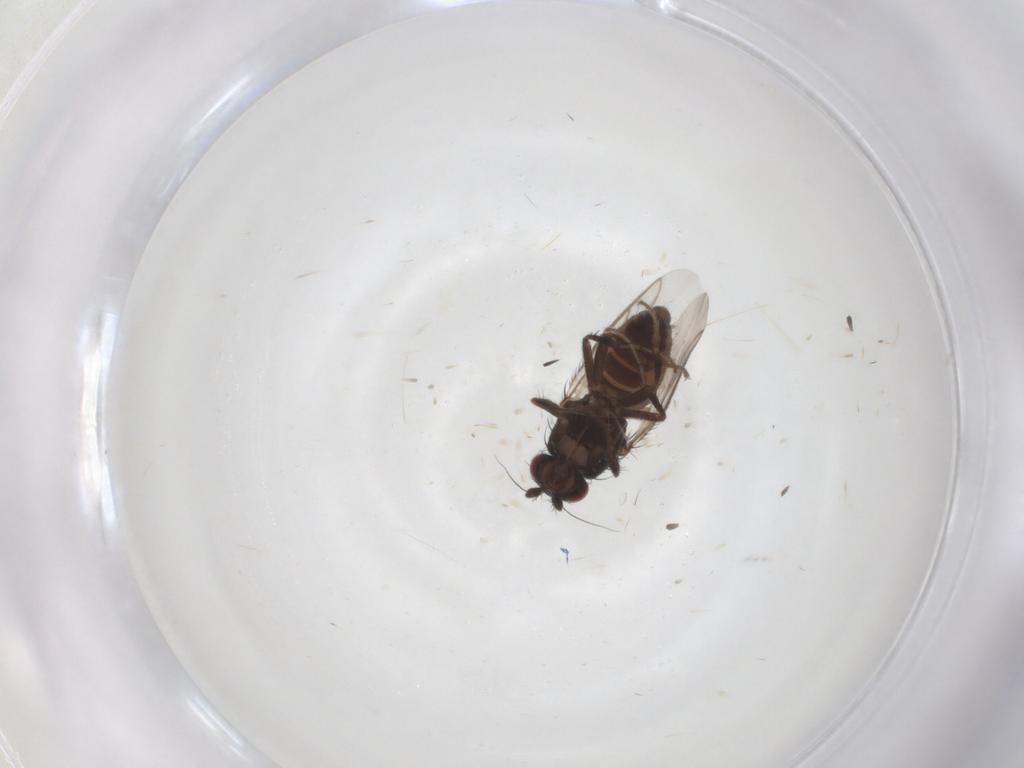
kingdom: Animalia
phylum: Arthropoda
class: Insecta
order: Diptera
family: Sphaeroceridae
